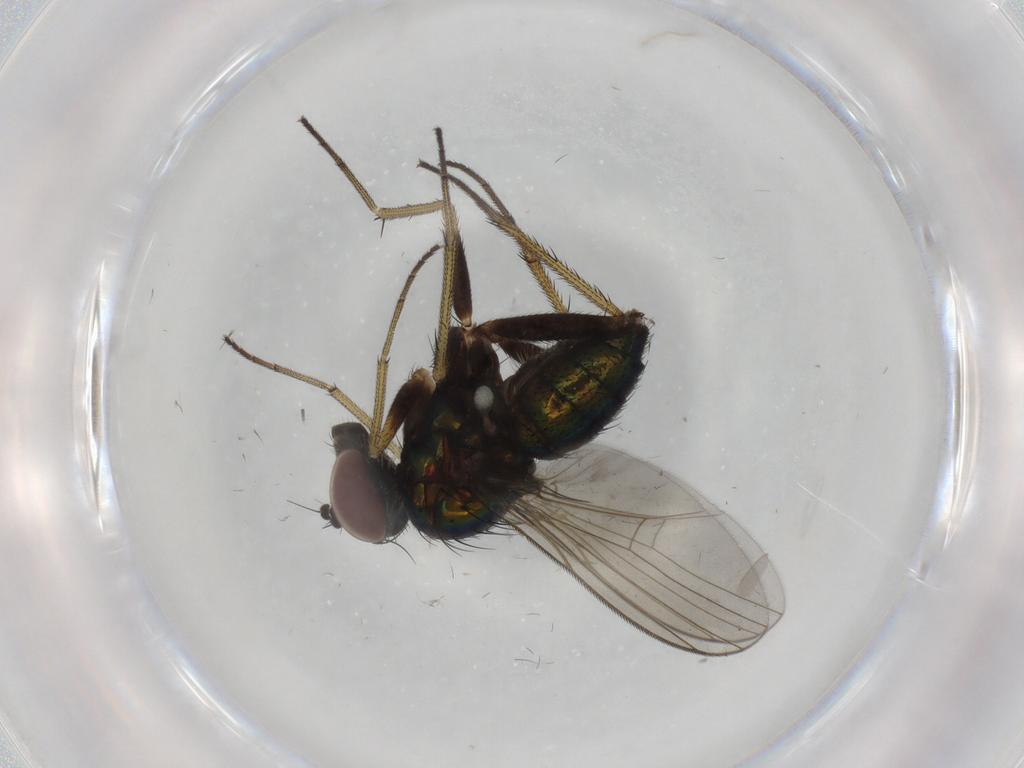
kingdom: Animalia
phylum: Arthropoda
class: Insecta
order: Diptera
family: Dolichopodidae
